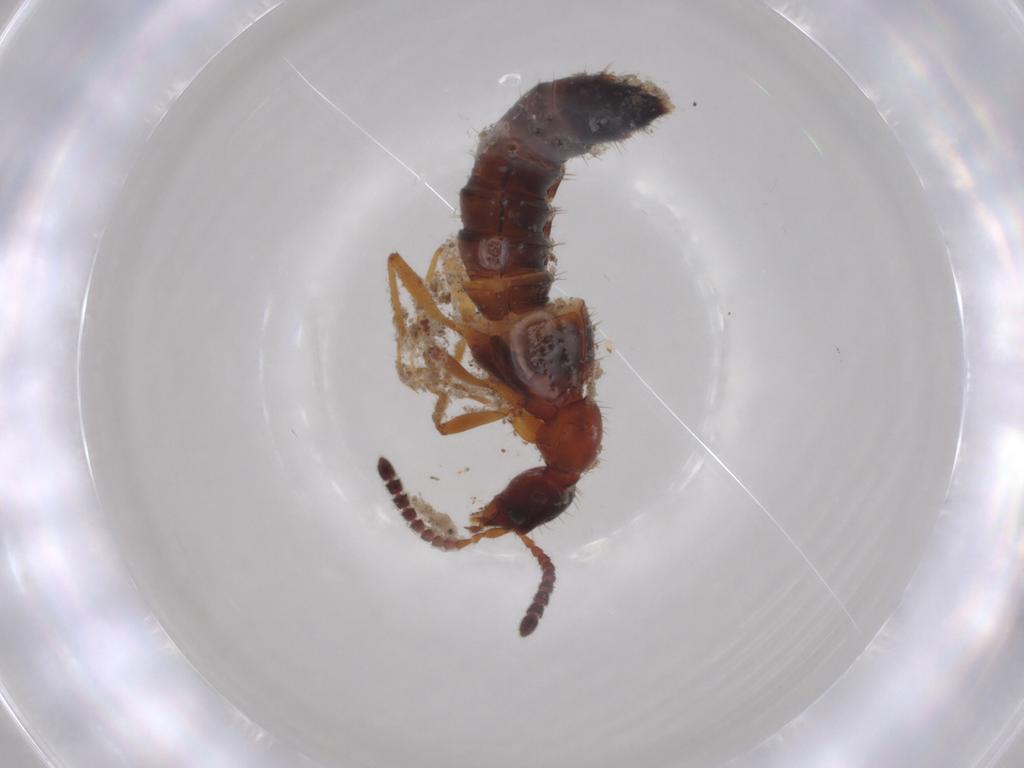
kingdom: Animalia
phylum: Arthropoda
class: Insecta
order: Coleoptera
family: Staphylinidae
